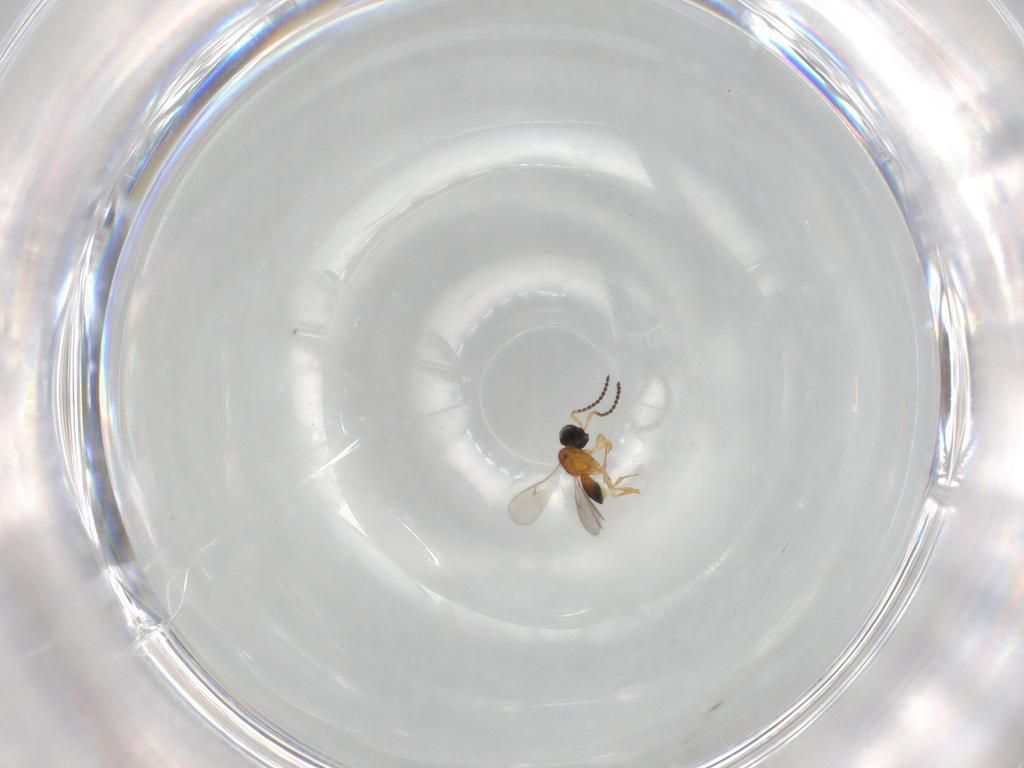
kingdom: Animalia
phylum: Arthropoda
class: Insecta
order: Hymenoptera
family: Scelionidae
